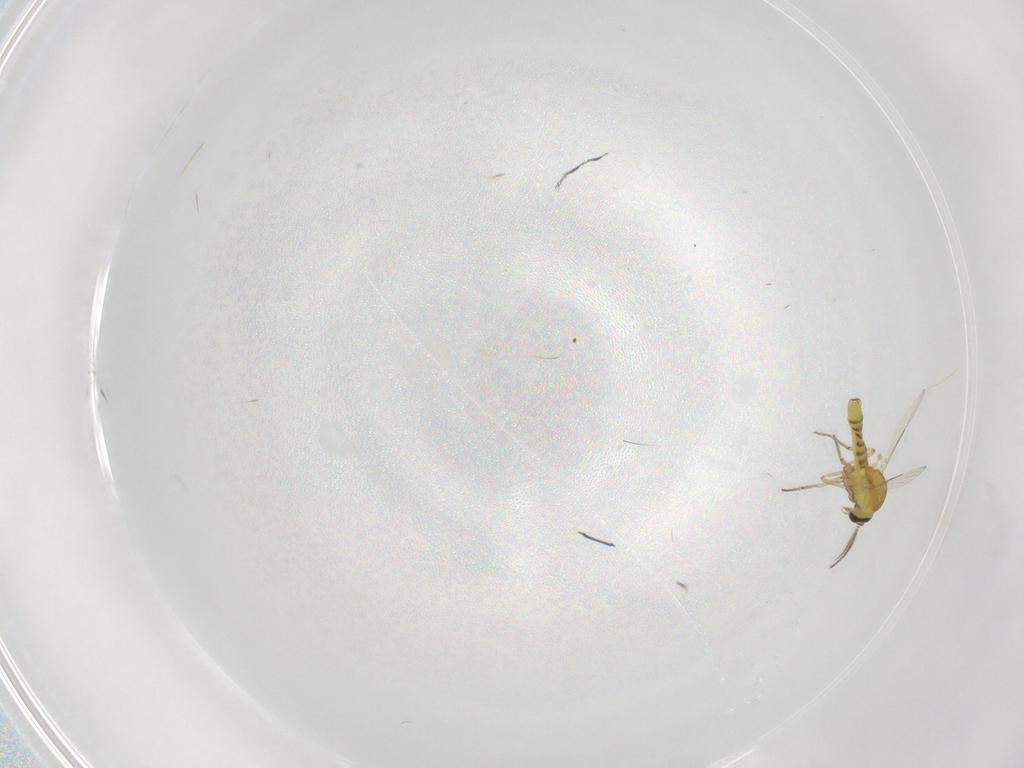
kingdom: Animalia
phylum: Arthropoda
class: Insecta
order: Diptera
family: Ceratopogonidae
